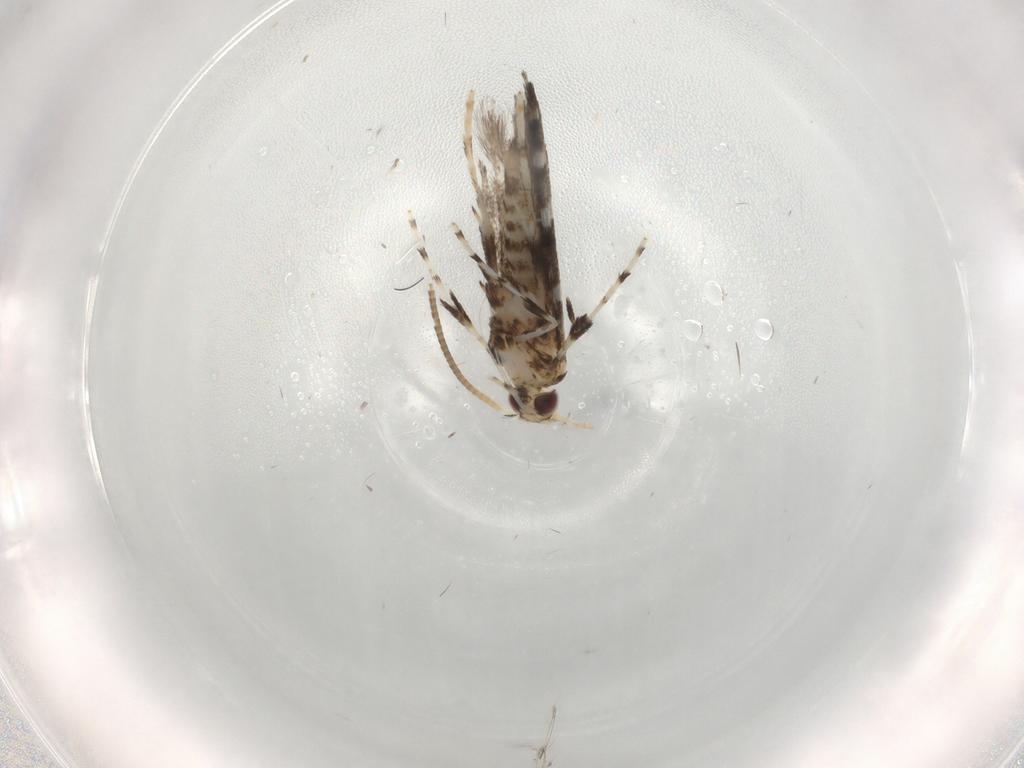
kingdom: Animalia
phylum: Arthropoda
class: Insecta
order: Lepidoptera
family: Gracillariidae
